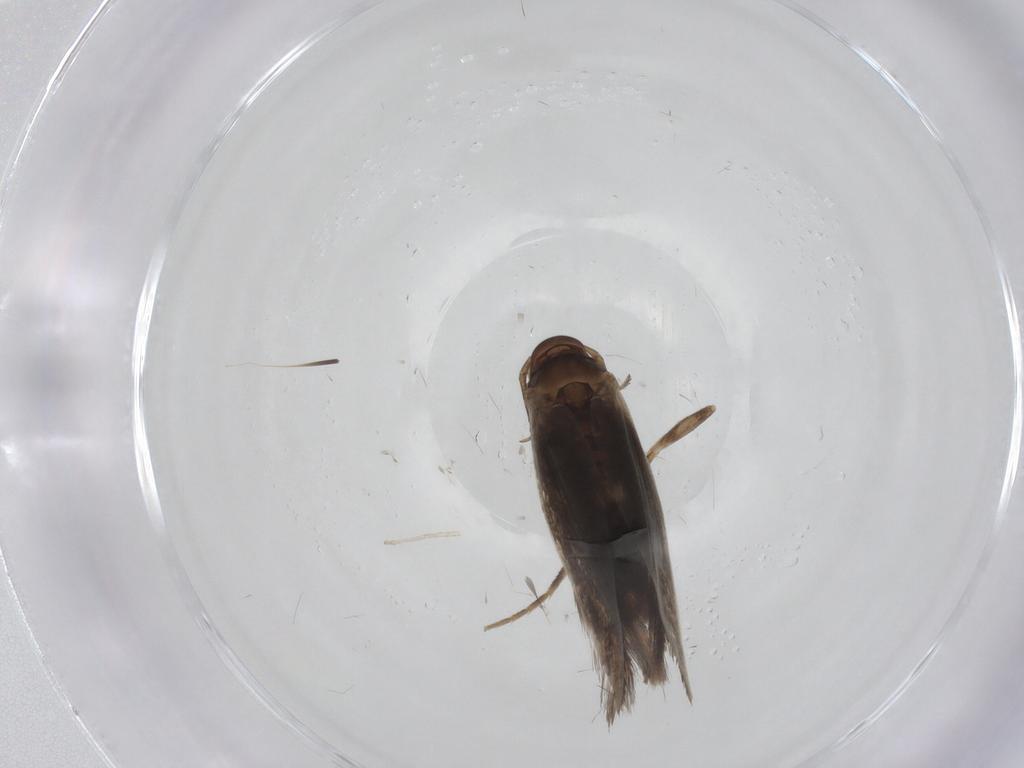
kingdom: Animalia
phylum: Arthropoda
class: Insecta
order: Lepidoptera
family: Elachistidae
